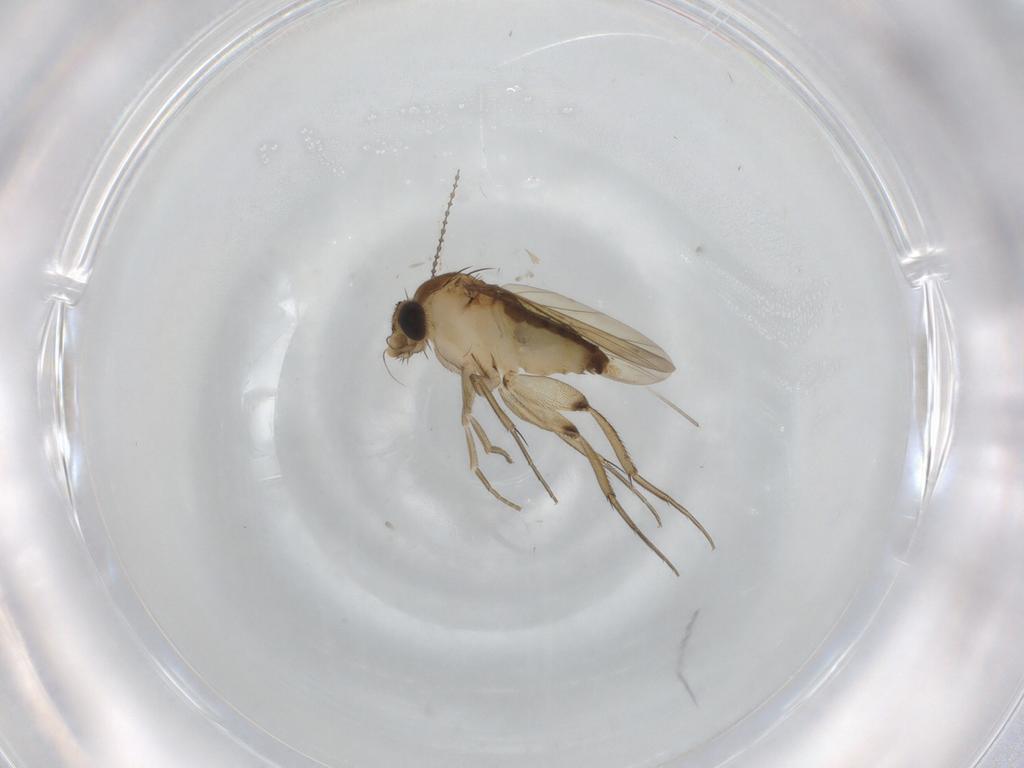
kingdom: Animalia
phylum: Arthropoda
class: Insecta
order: Diptera
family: Phoridae
